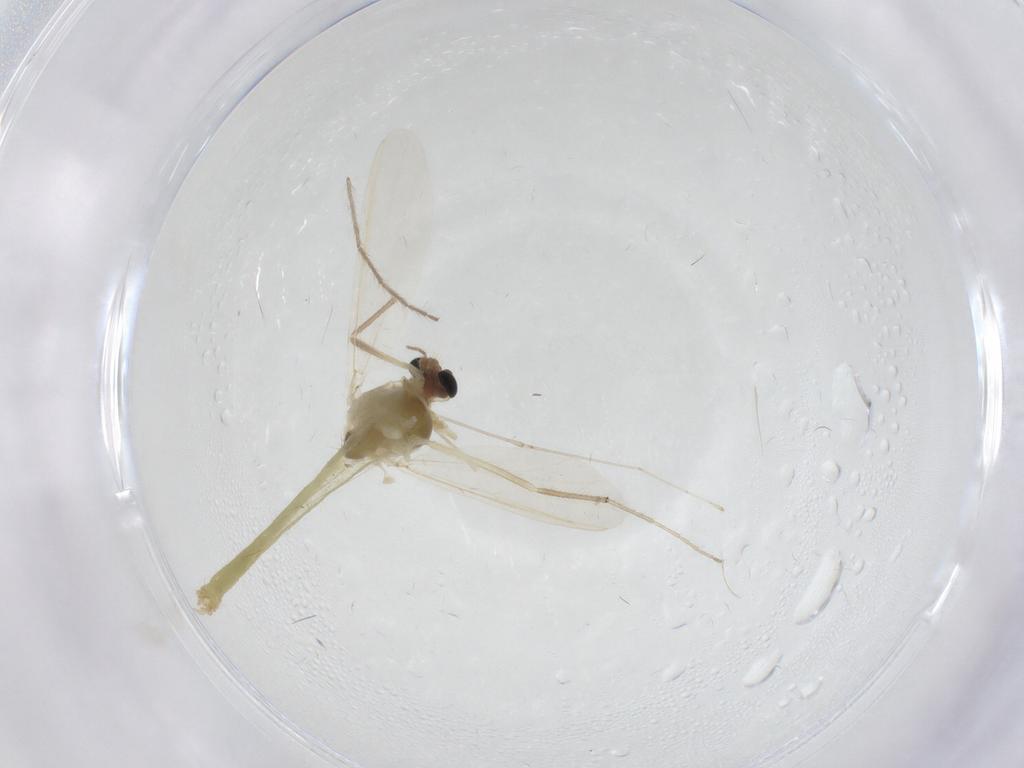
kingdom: Animalia
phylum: Arthropoda
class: Insecta
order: Diptera
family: Chironomidae
